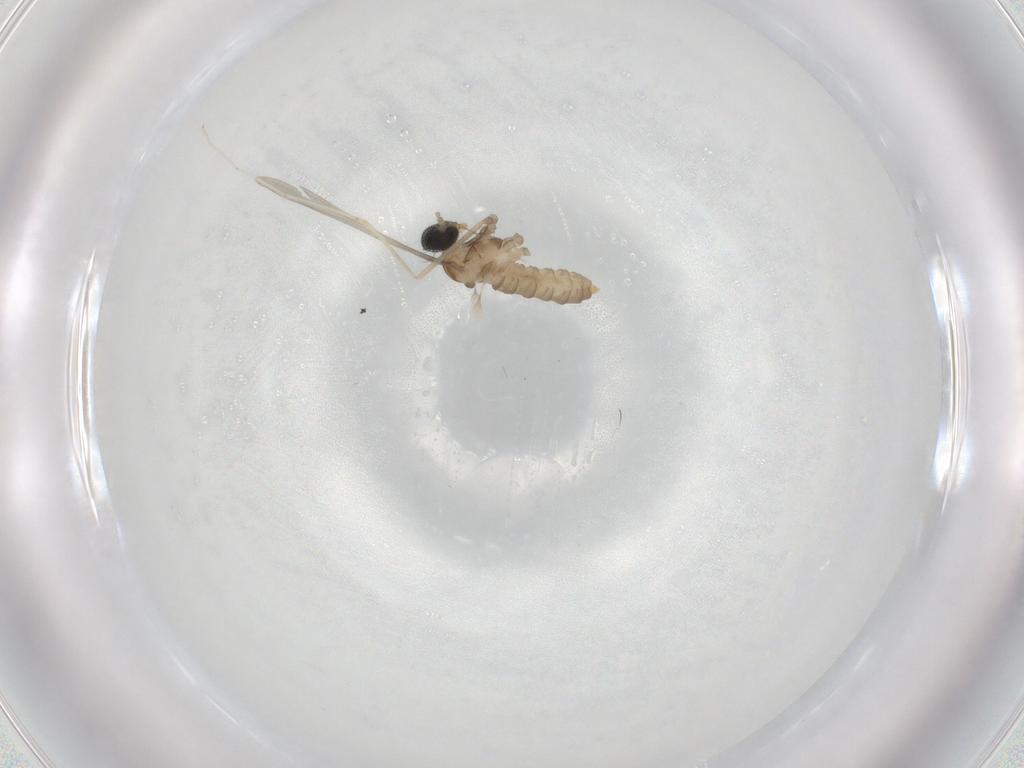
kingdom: Animalia
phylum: Arthropoda
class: Insecta
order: Diptera
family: Cecidomyiidae
